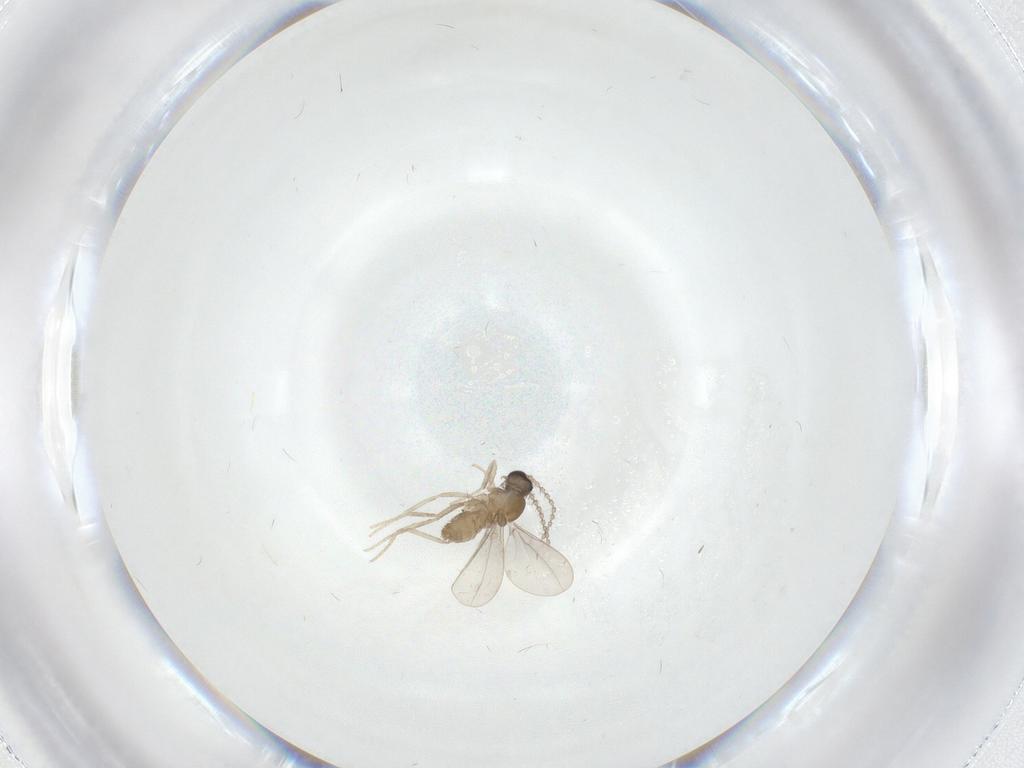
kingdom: Animalia
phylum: Arthropoda
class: Insecta
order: Diptera
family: Cecidomyiidae
